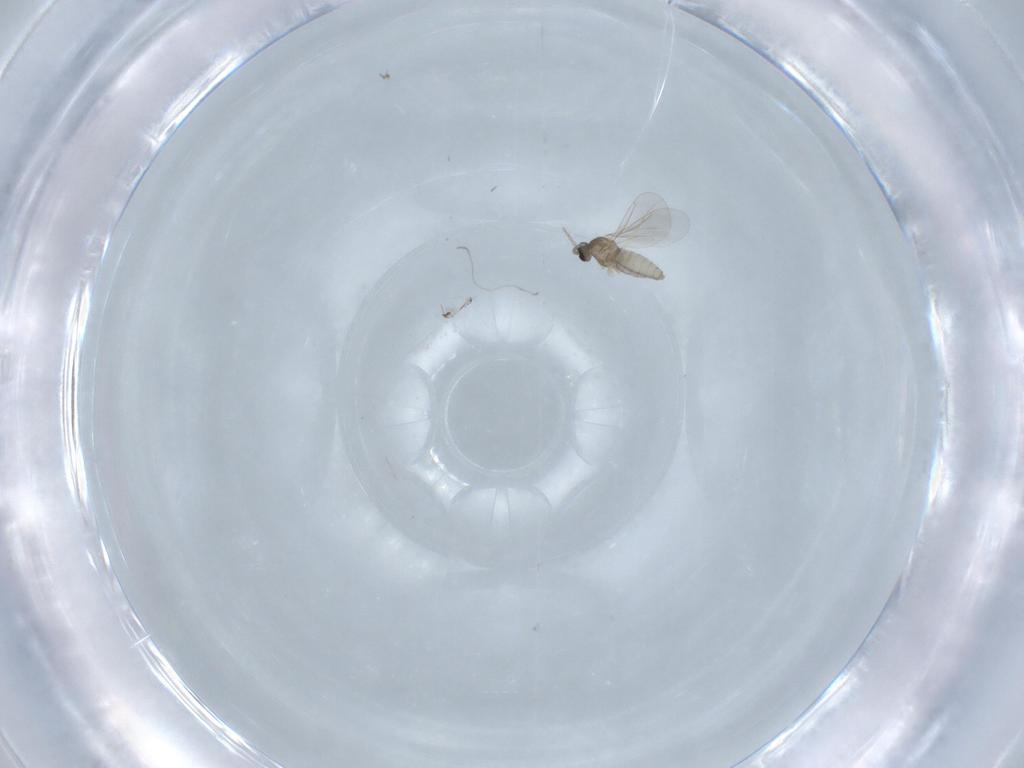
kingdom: Animalia
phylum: Arthropoda
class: Insecta
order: Diptera
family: Cecidomyiidae
